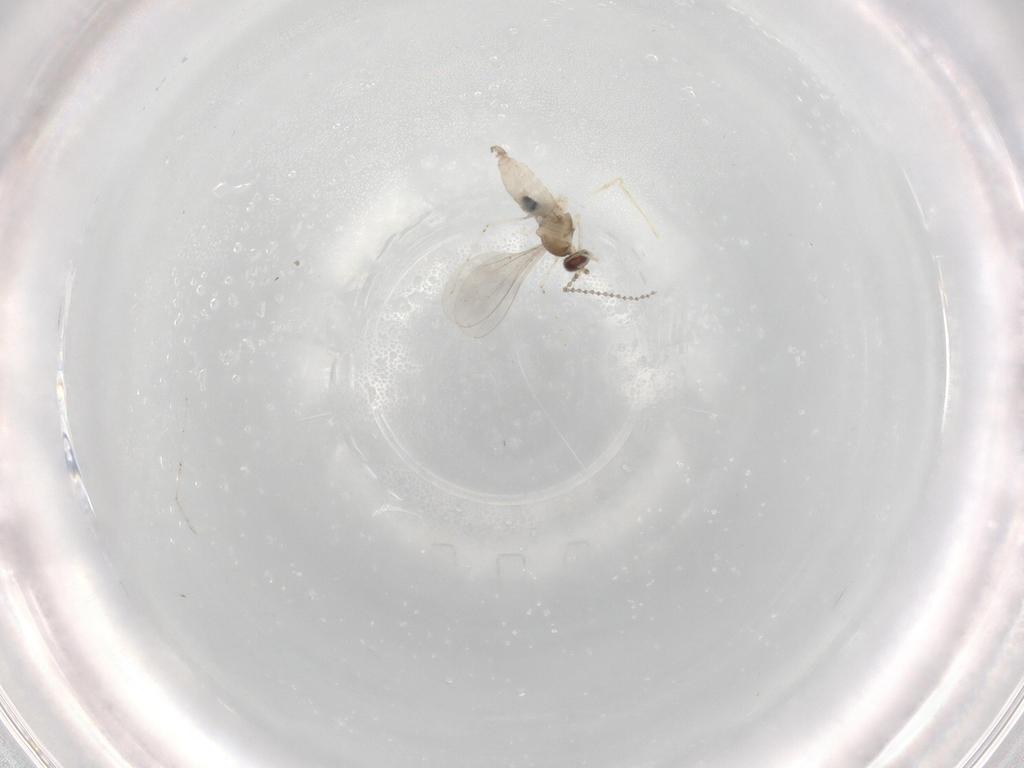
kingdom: Animalia
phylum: Arthropoda
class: Insecta
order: Diptera
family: Cecidomyiidae
